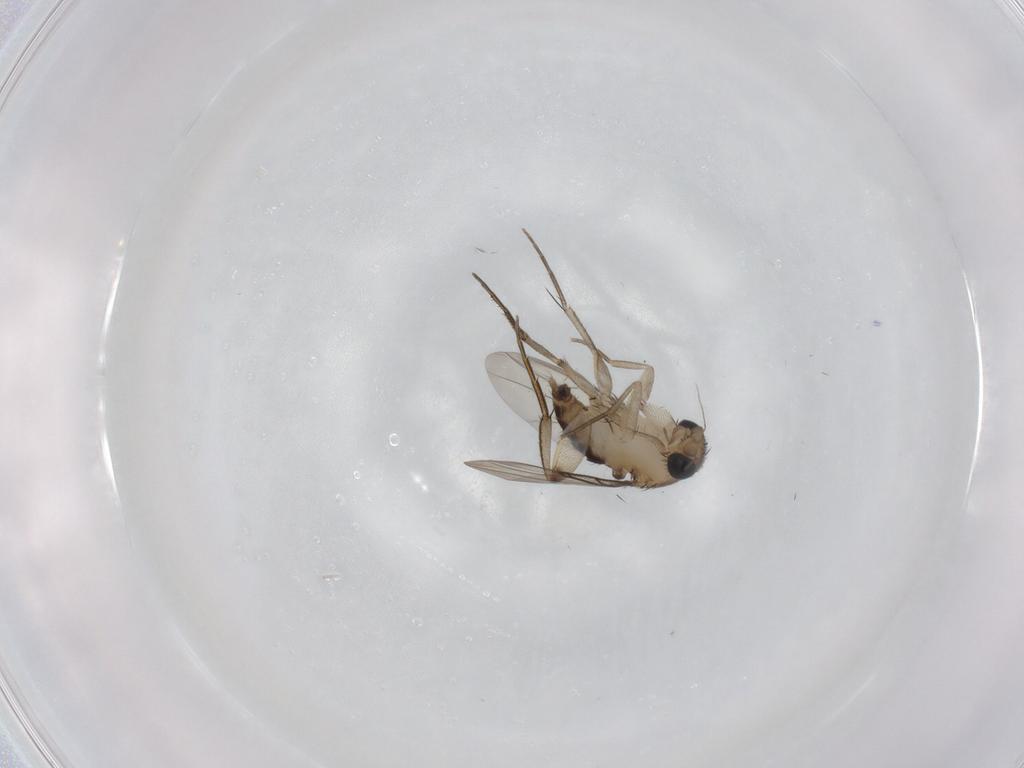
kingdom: Animalia
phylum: Arthropoda
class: Insecta
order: Diptera
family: Phoridae
